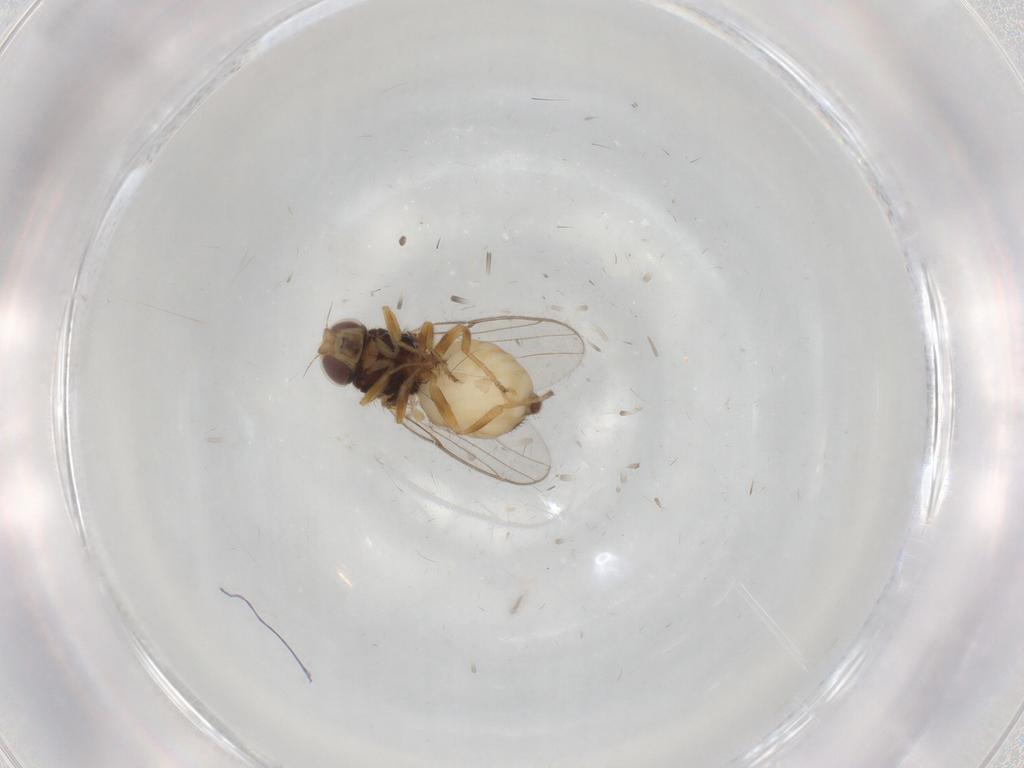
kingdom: Animalia
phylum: Arthropoda
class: Insecta
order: Diptera
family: Chloropidae
